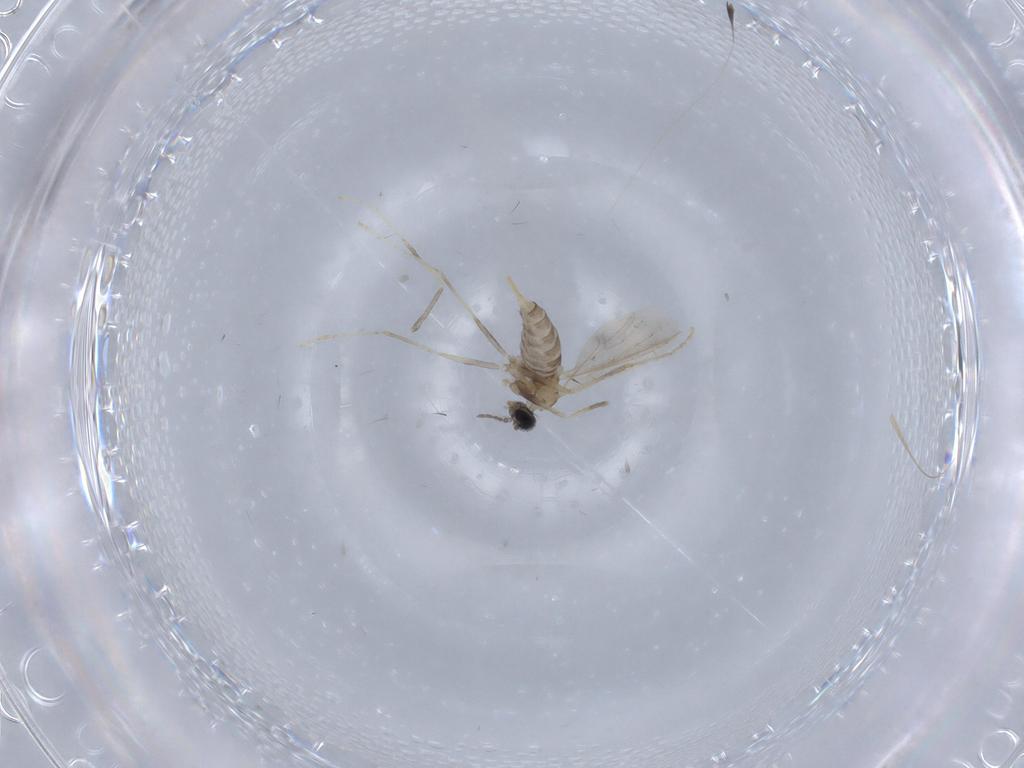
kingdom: Animalia
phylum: Arthropoda
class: Insecta
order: Diptera
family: Cecidomyiidae
